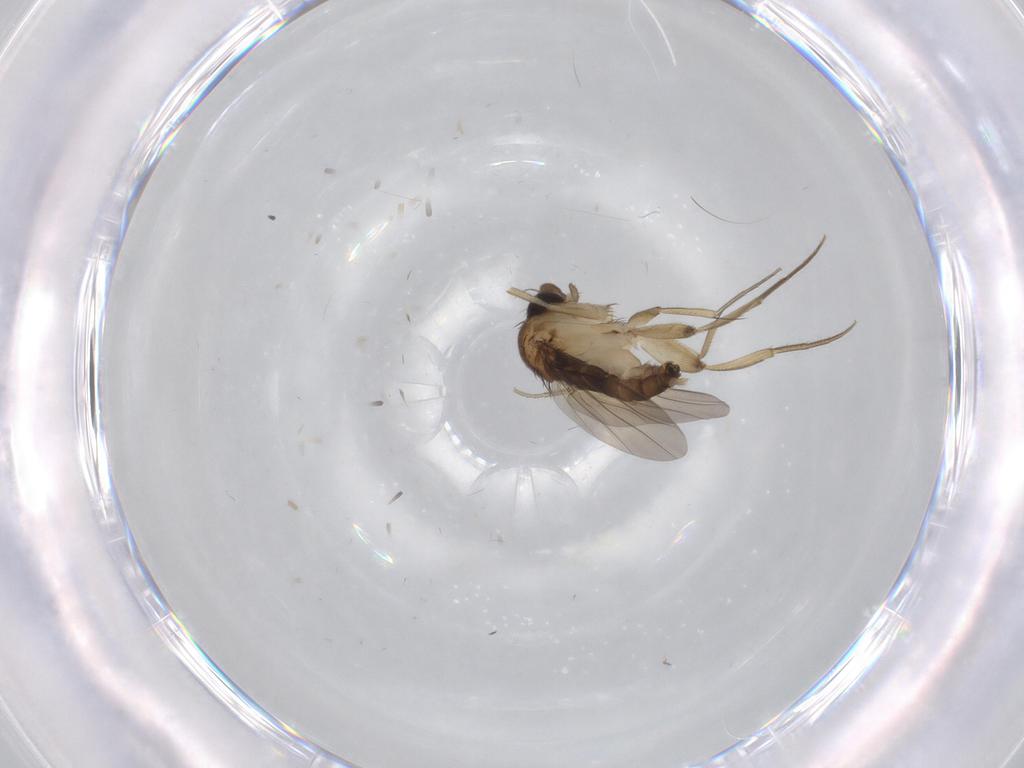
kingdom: Animalia
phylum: Arthropoda
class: Insecta
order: Diptera
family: Phoridae
